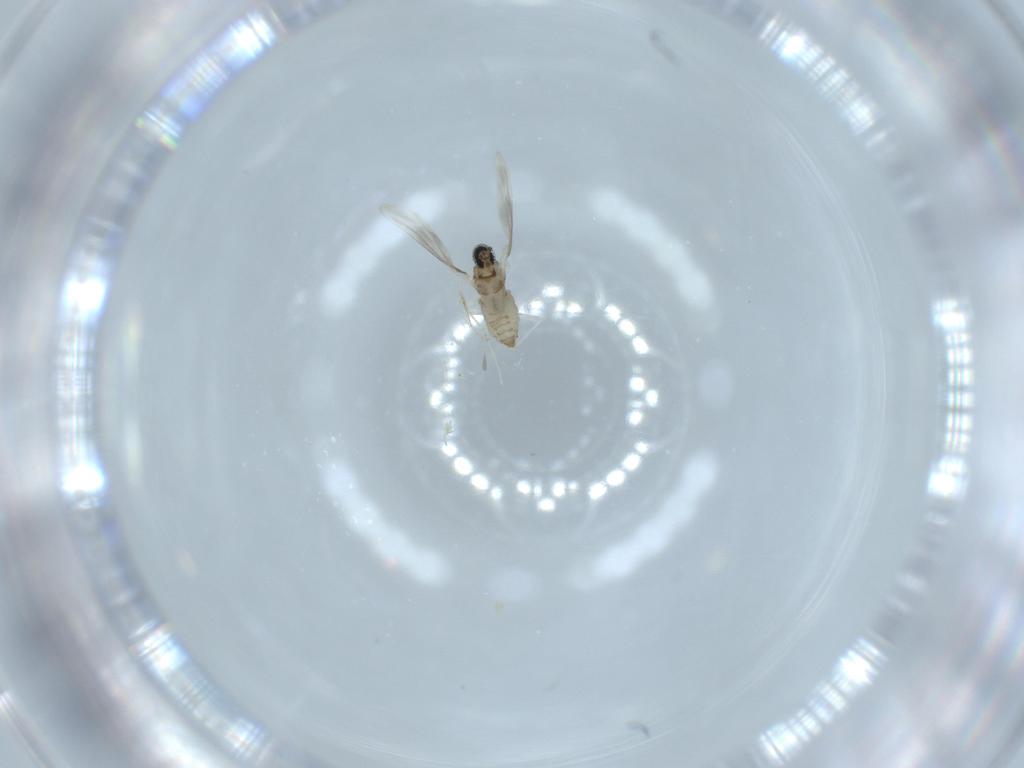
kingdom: Animalia
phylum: Arthropoda
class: Insecta
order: Diptera
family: Cecidomyiidae
